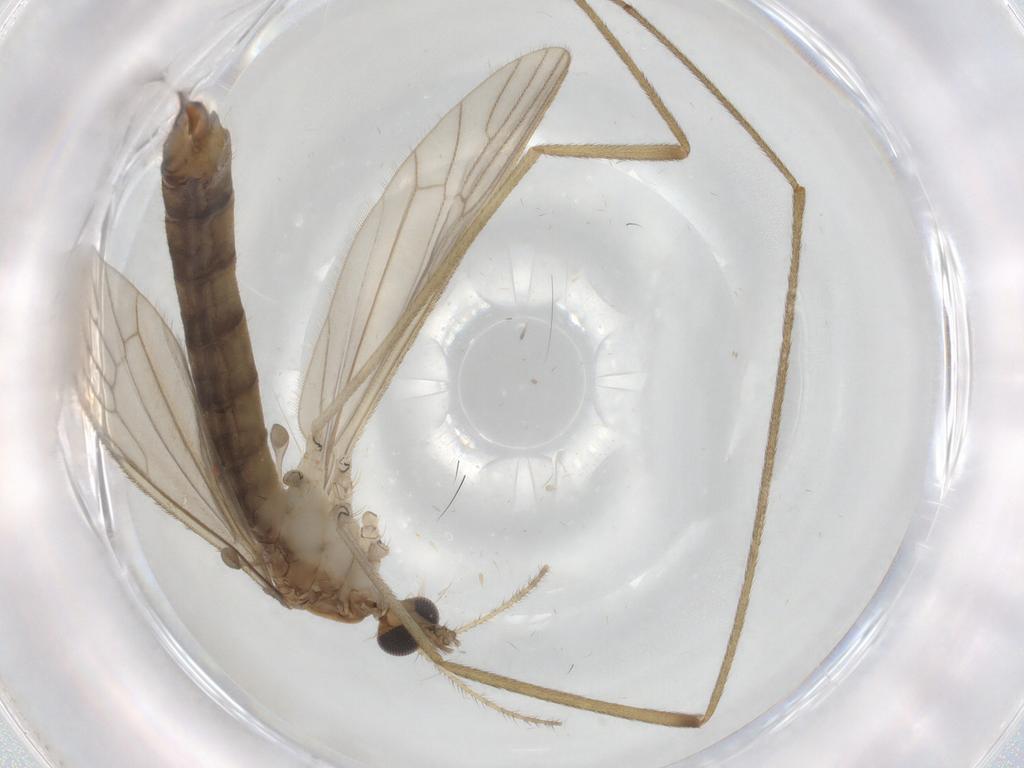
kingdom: Animalia
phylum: Arthropoda
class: Insecta
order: Diptera
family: Limoniidae
